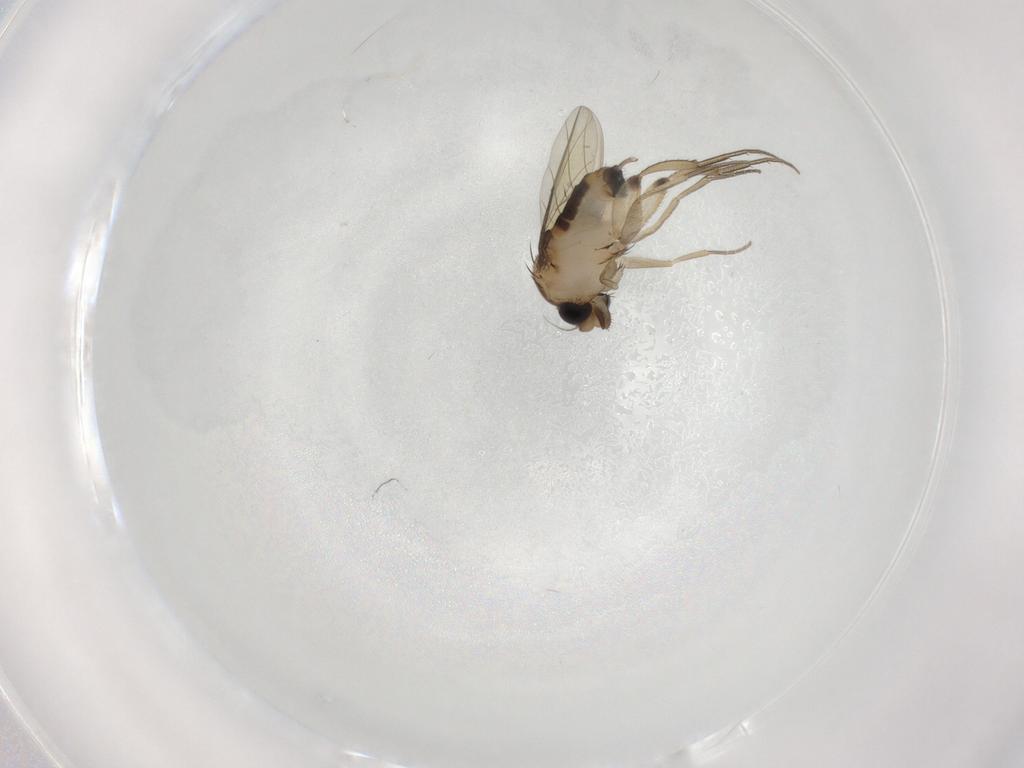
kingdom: Animalia
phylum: Arthropoda
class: Insecta
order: Diptera
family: Phoridae
